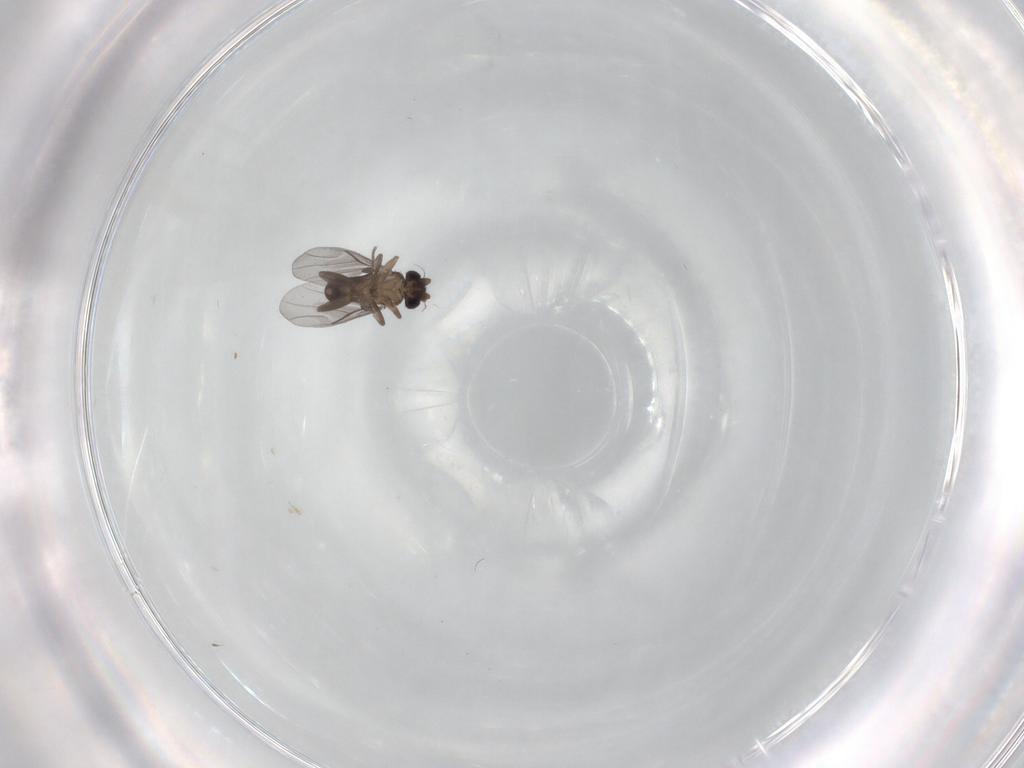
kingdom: Animalia
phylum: Arthropoda
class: Insecta
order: Diptera
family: Phoridae
